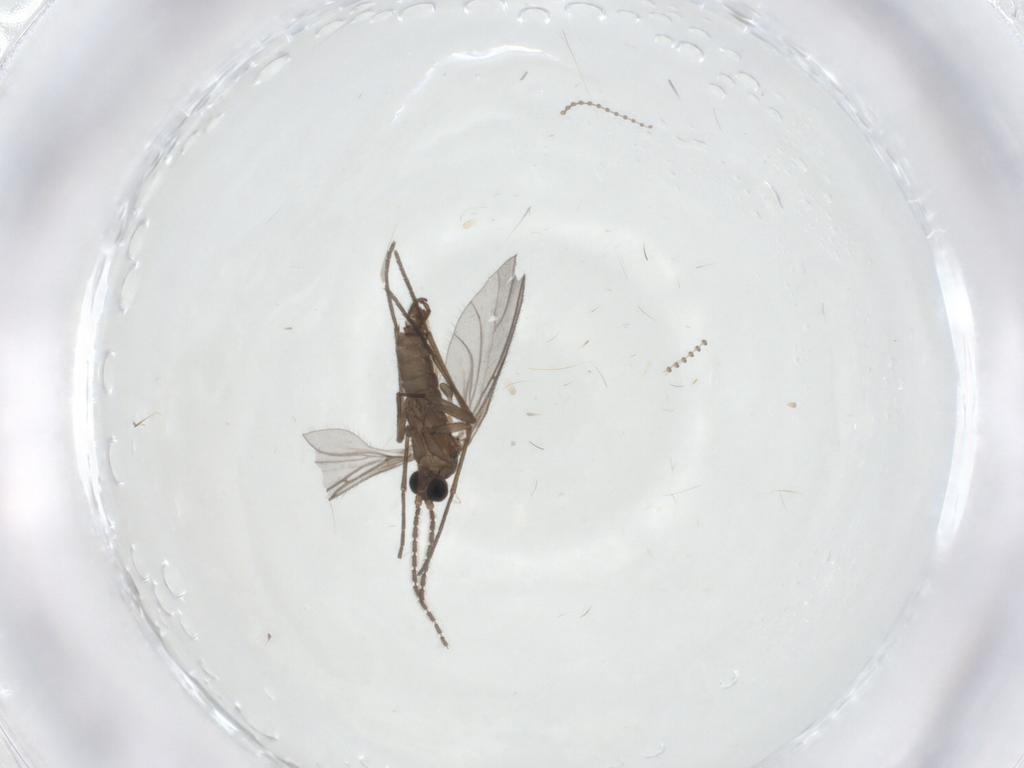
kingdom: Animalia
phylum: Arthropoda
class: Insecta
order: Diptera
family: Cecidomyiidae
